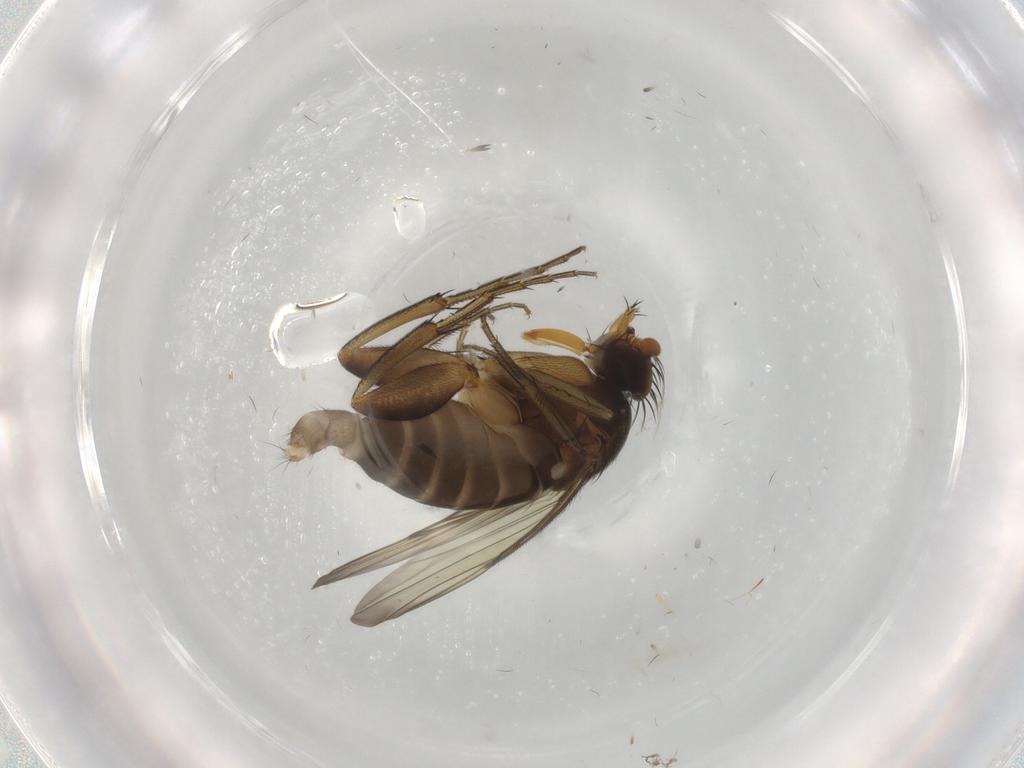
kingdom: Animalia
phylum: Arthropoda
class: Insecta
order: Diptera
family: Phoridae
